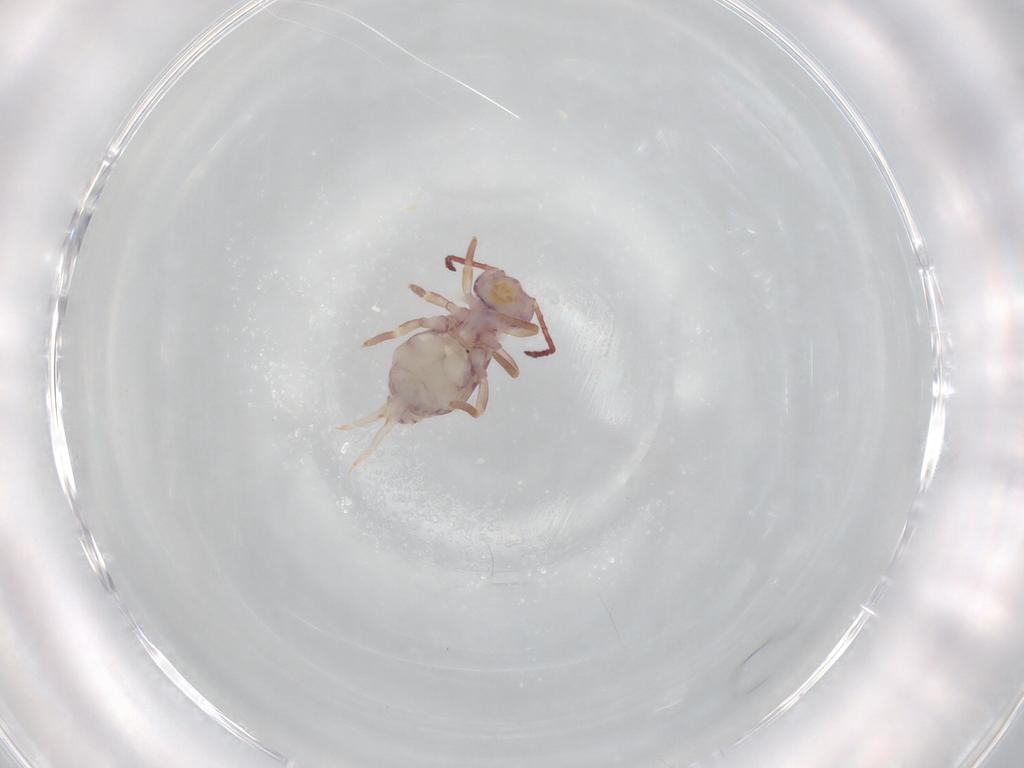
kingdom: Animalia
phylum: Arthropoda
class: Collembola
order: Symphypleona
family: Dicyrtomidae
